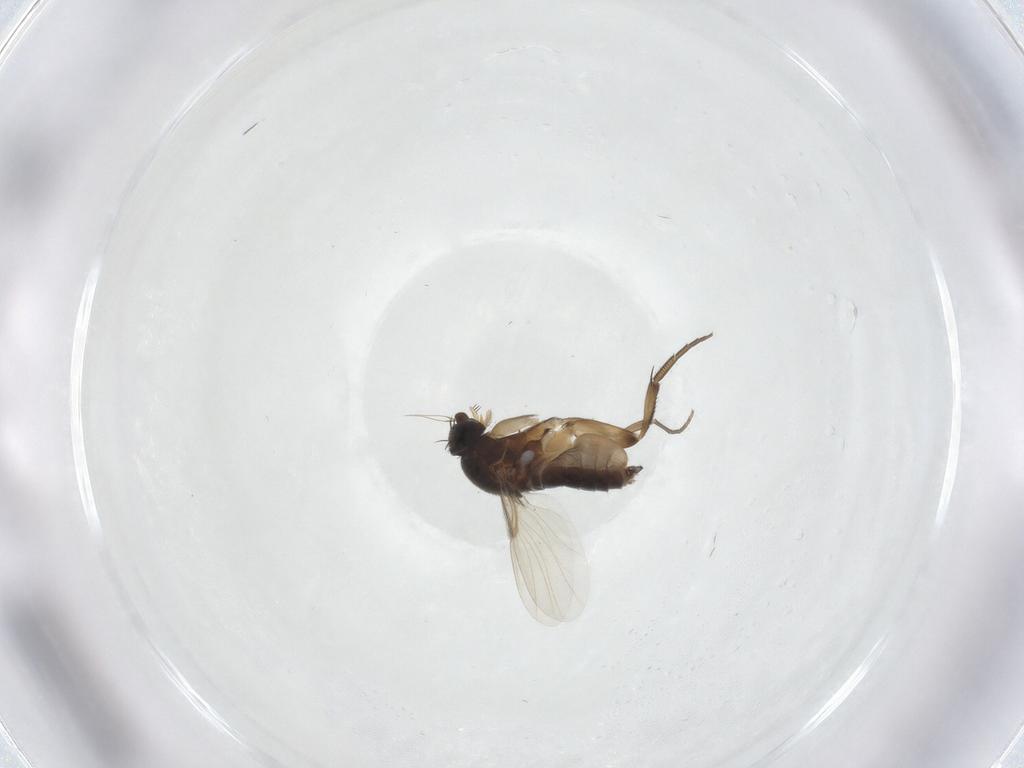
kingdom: Animalia
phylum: Arthropoda
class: Insecta
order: Diptera
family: Phoridae
